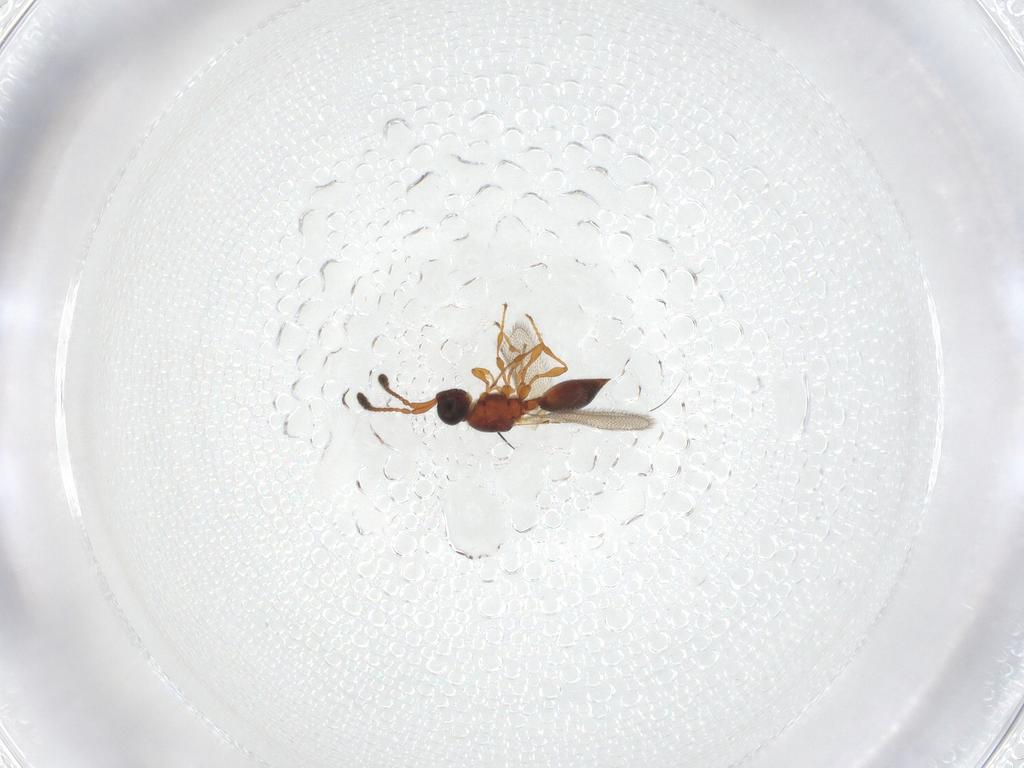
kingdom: Animalia
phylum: Arthropoda
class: Insecta
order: Hymenoptera
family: Diapriidae
